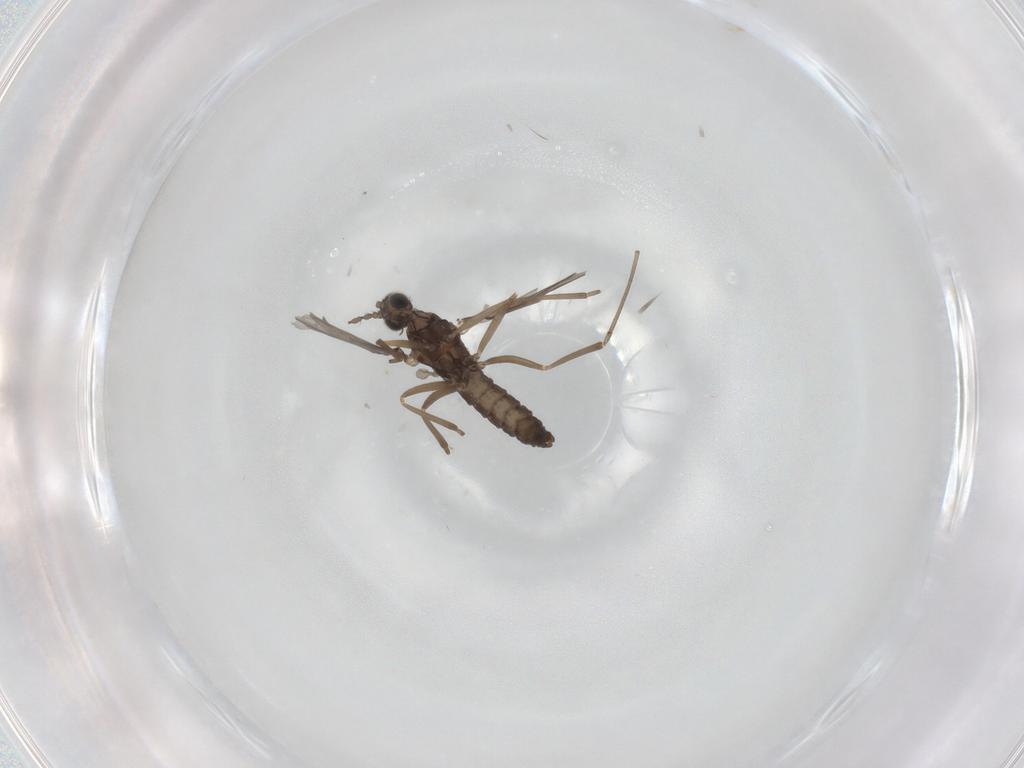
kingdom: Animalia
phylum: Arthropoda
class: Insecta
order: Diptera
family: Cecidomyiidae
